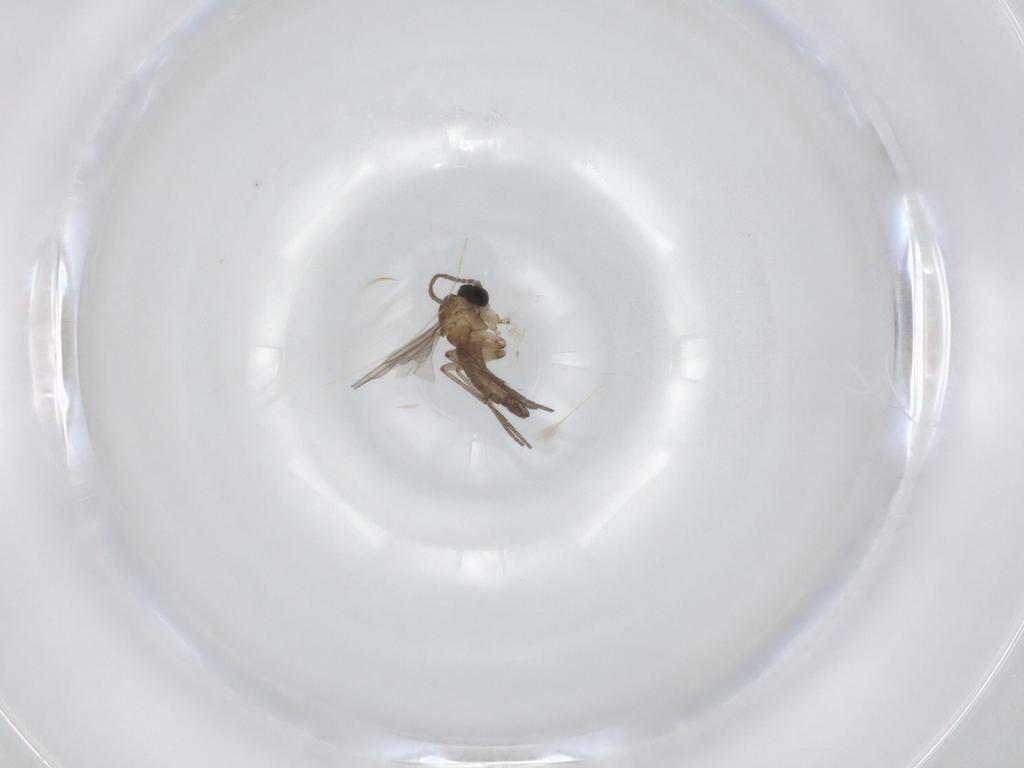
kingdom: Animalia
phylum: Arthropoda
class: Insecta
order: Diptera
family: Sciaridae
